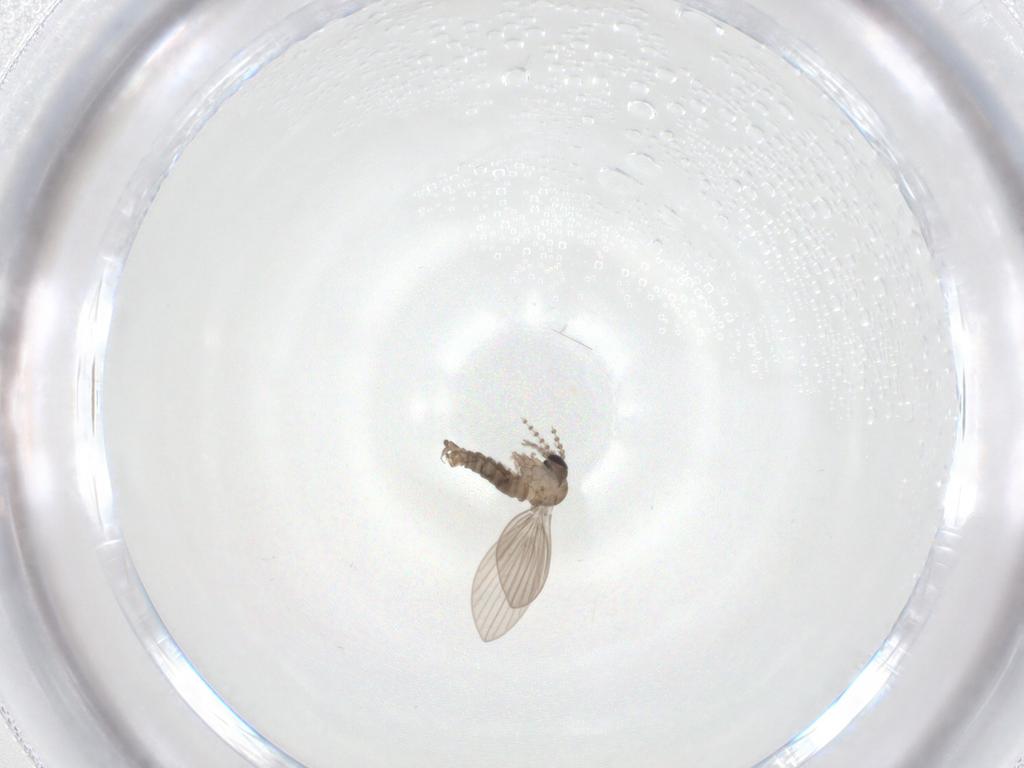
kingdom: Animalia
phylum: Arthropoda
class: Insecta
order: Diptera
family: Psychodidae
